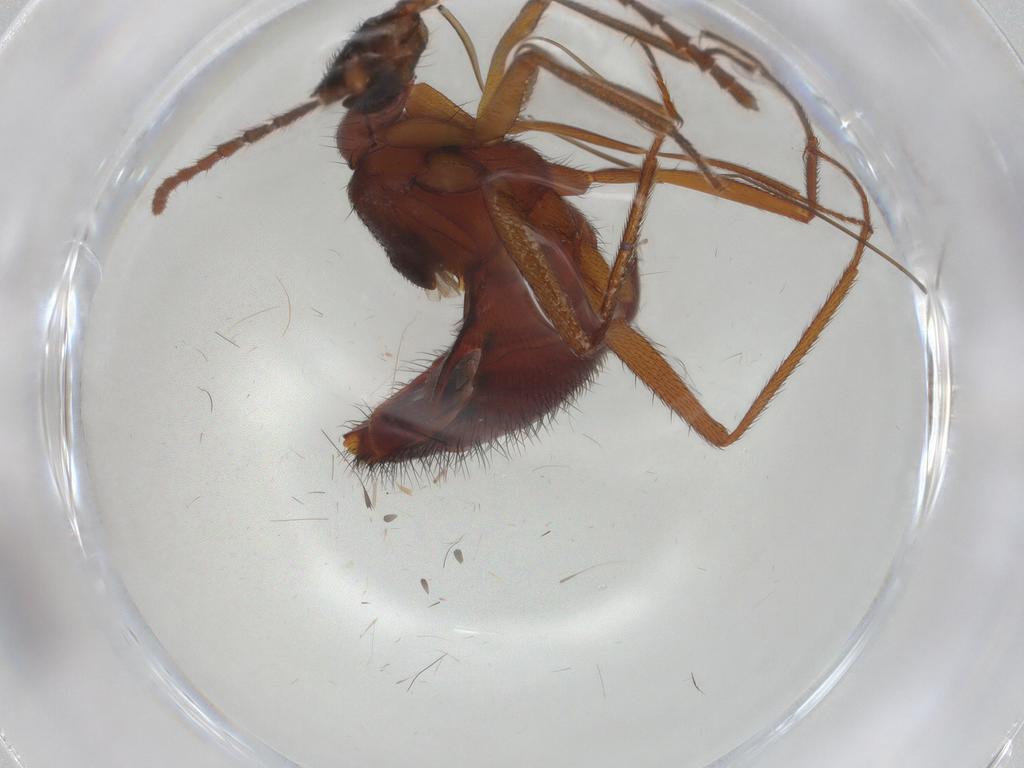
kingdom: Animalia
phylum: Arthropoda
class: Insecta
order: Coleoptera
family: Staphylinidae
